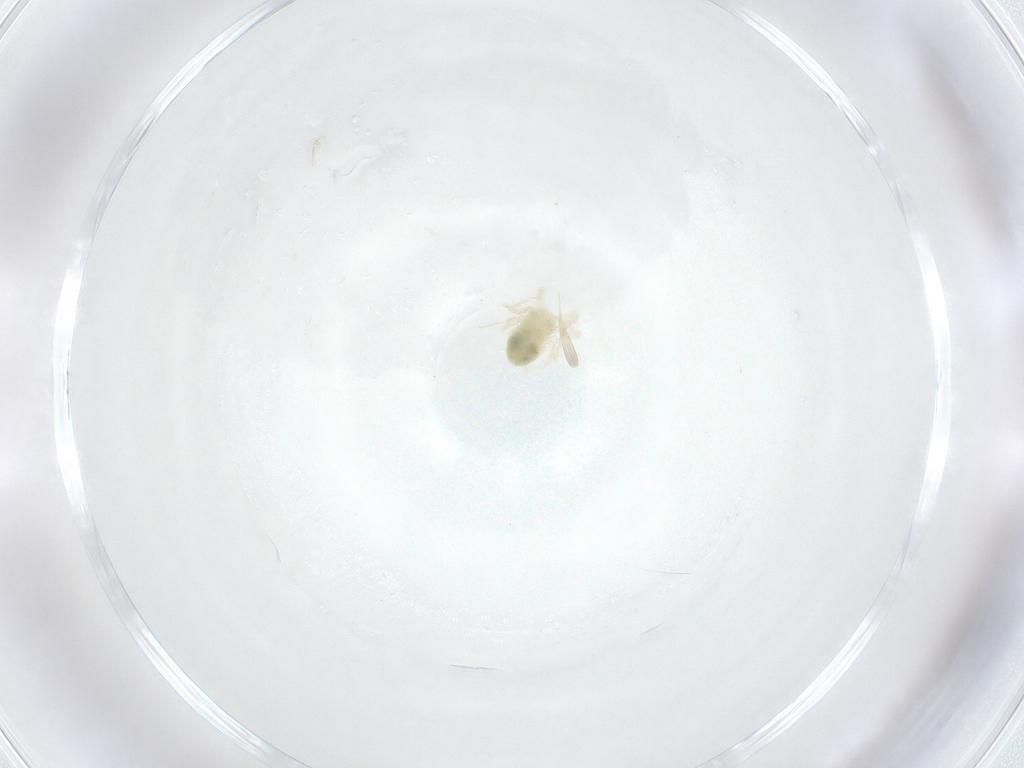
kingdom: Animalia
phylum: Arthropoda
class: Insecta
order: Diptera
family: Cecidomyiidae
